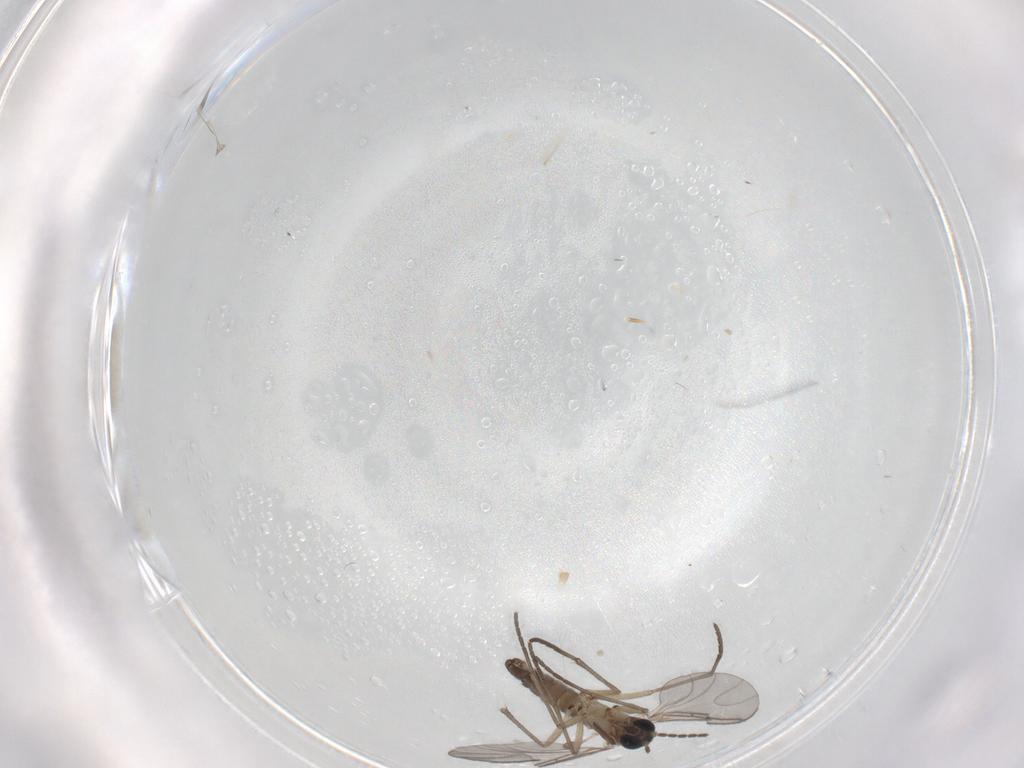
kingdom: Animalia
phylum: Arthropoda
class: Insecta
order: Diptera
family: Sciaridae
